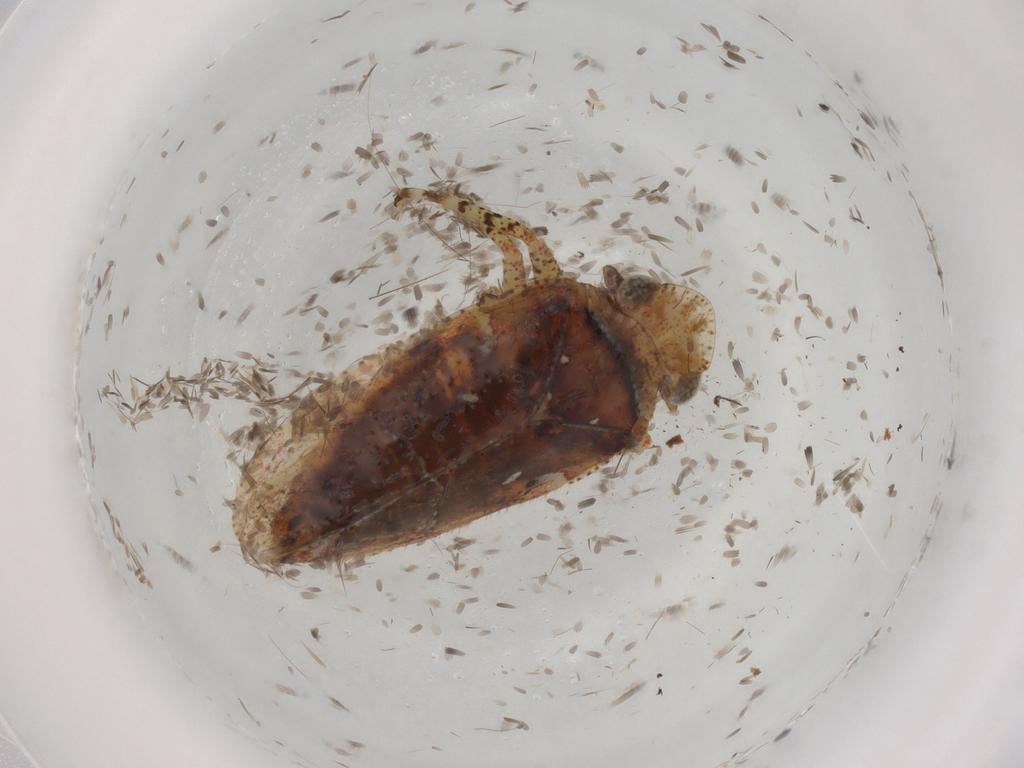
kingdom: Animalia
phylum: Arthropoda
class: Insecta
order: Hemiptera
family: Tettigometridae
